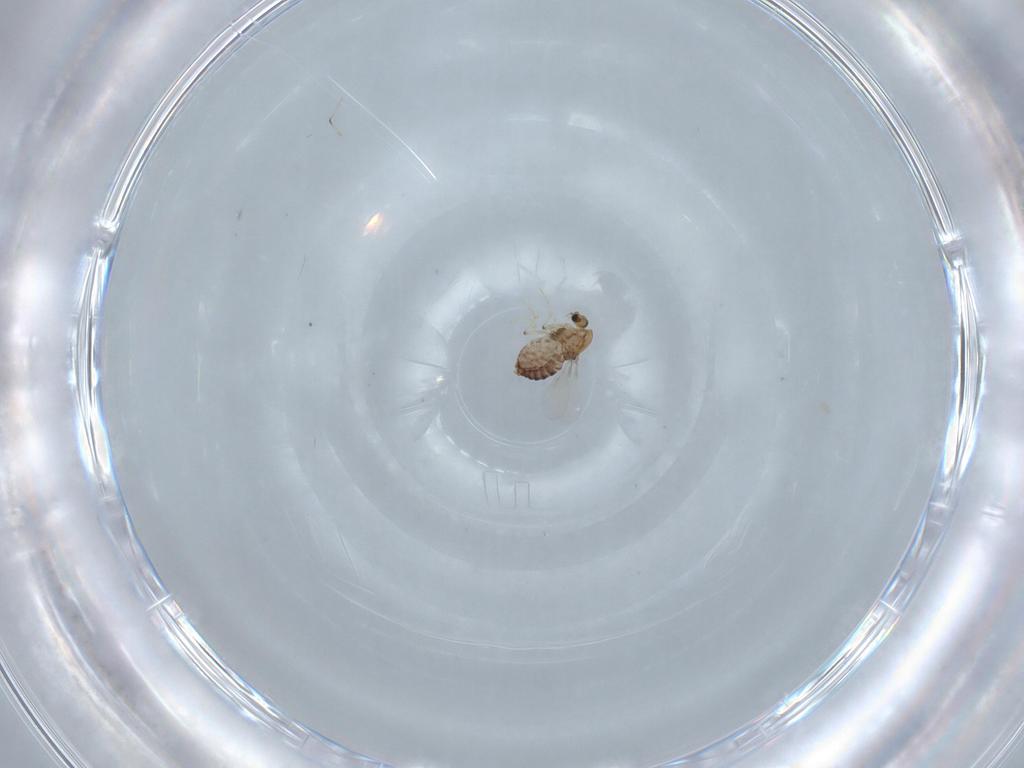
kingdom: Animalia
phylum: Arthropoda
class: Insecta
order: Diptera
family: Chironomidae
